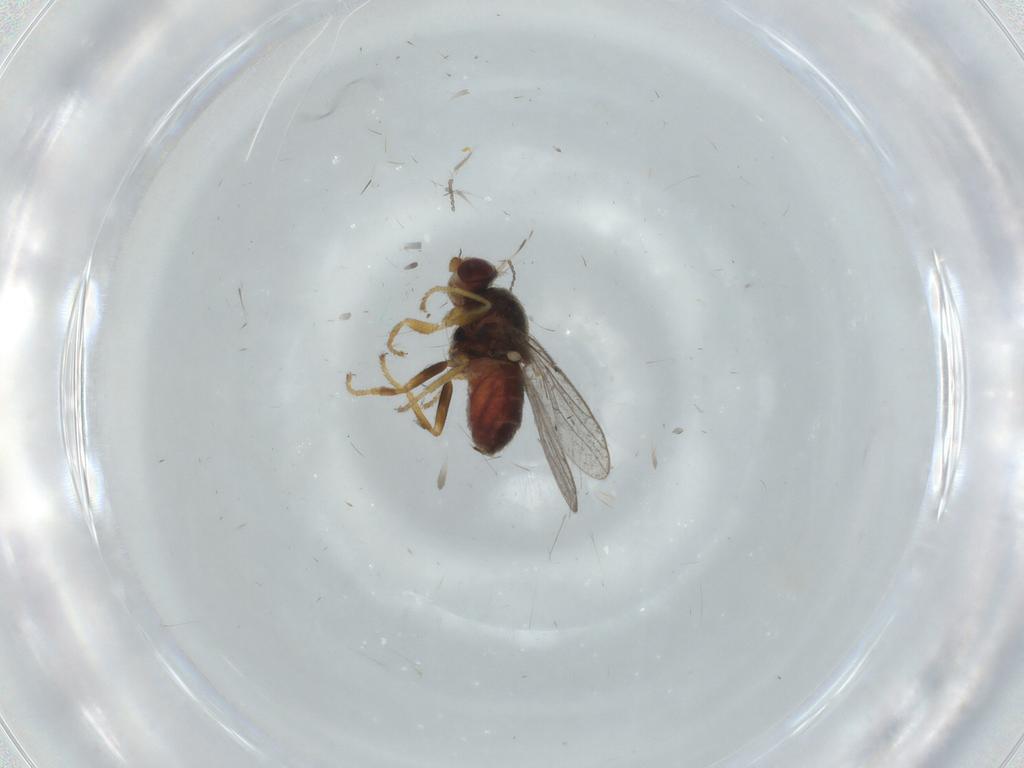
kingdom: Animalia
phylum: Arthropoda
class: Insecta
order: Diptera
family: Chloropidae
